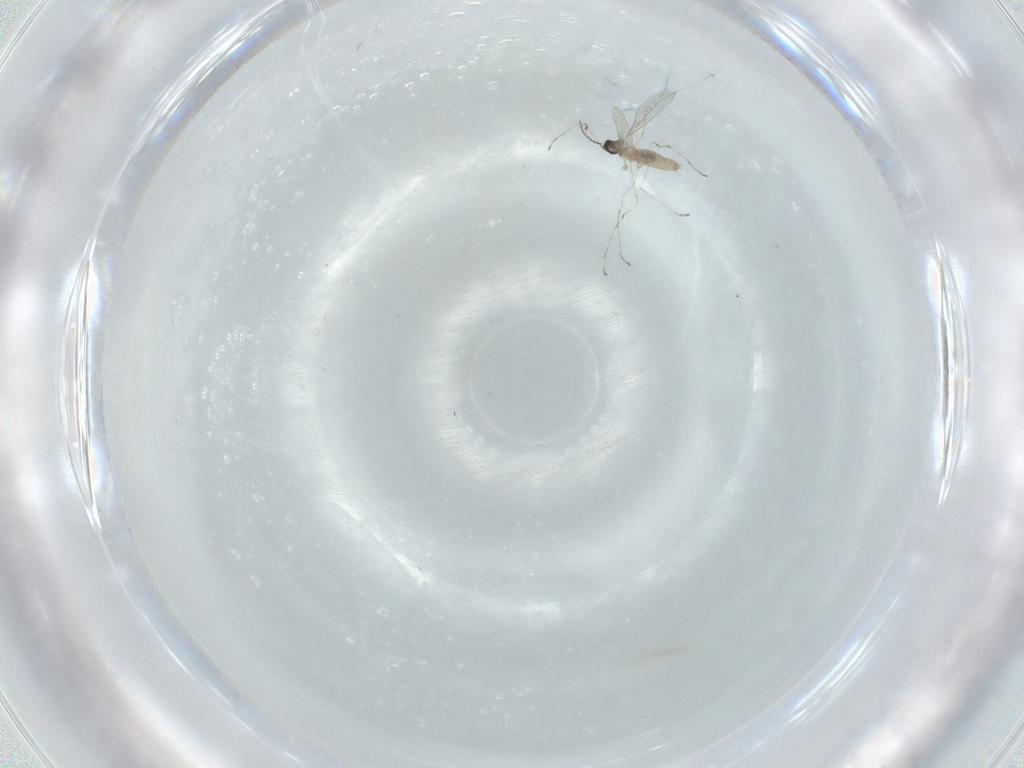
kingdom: Animalia
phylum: Arthropoda
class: Insecta
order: Diptera
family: Cecidomyiidae
